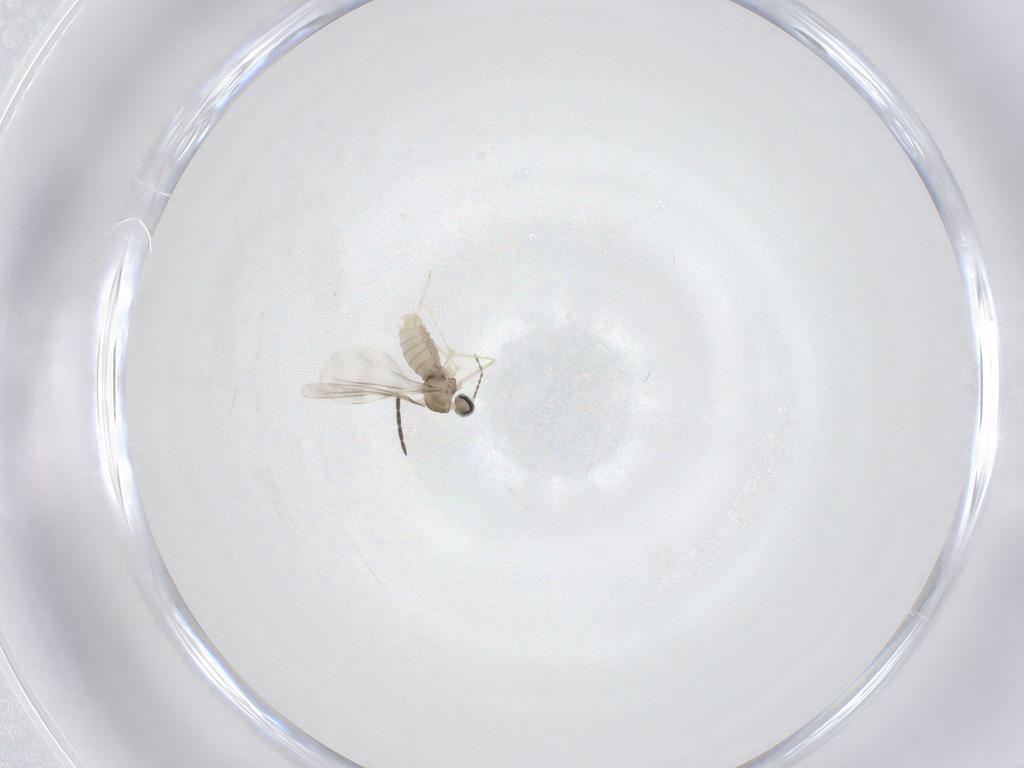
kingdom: Animalia
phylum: Arthropoda
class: Insecta
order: Diptera
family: Cecidomyiidae
